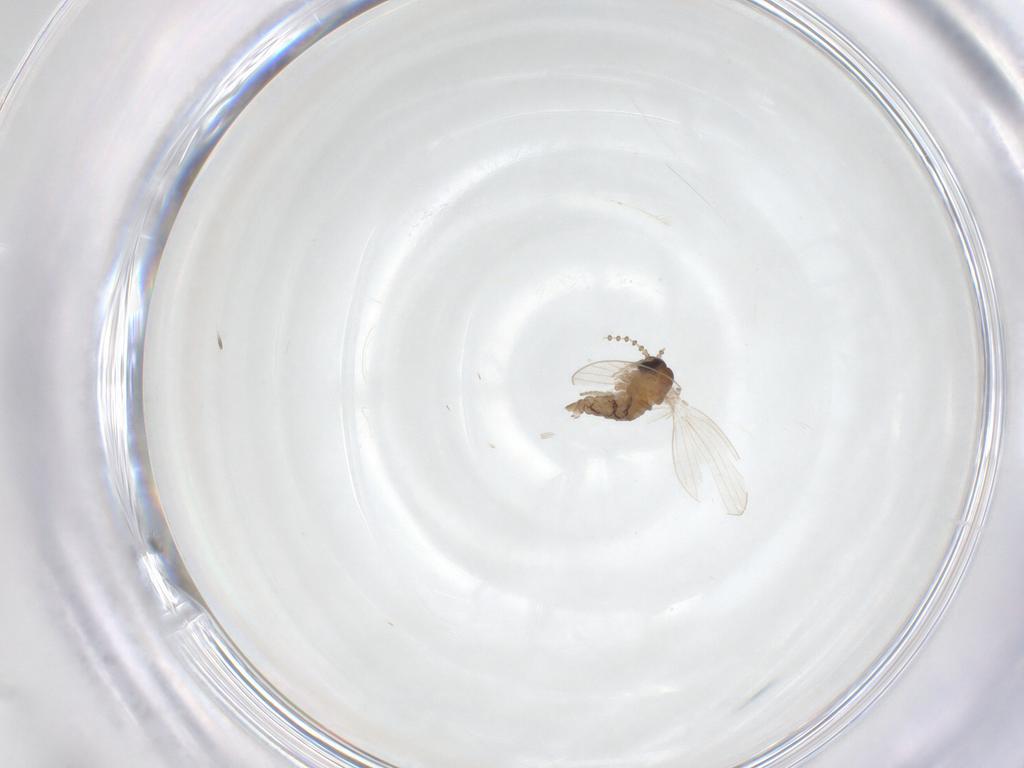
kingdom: Animalia
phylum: Arthropoda
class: Insecta
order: Diptera
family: Psychodidae
